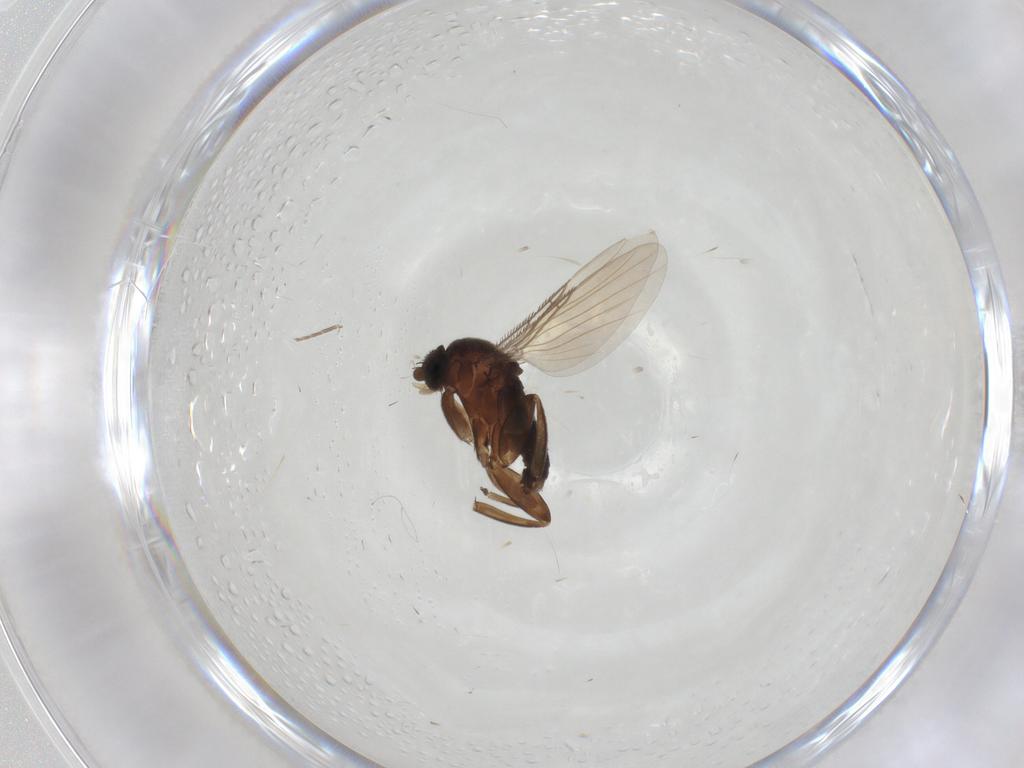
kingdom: Animalia
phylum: Arthropoda
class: Insecta
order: Diptera
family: Phoridae
